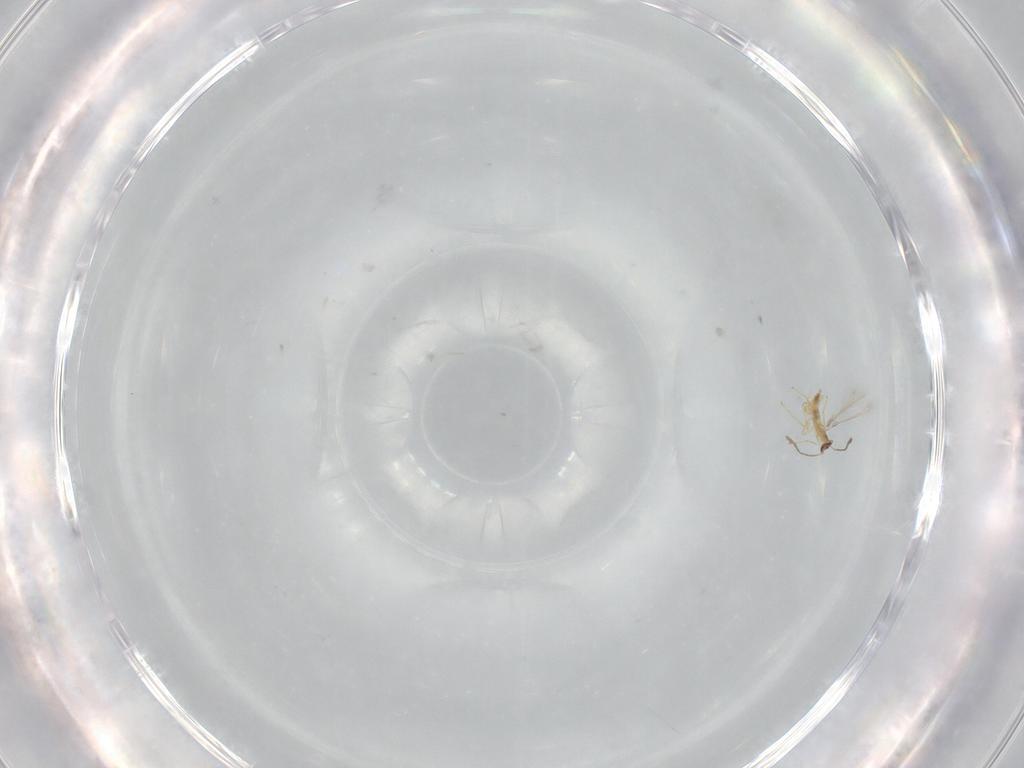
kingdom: Animalia
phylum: Arthropoda
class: Insecta
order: Hymenoptera
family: Mymaridae
